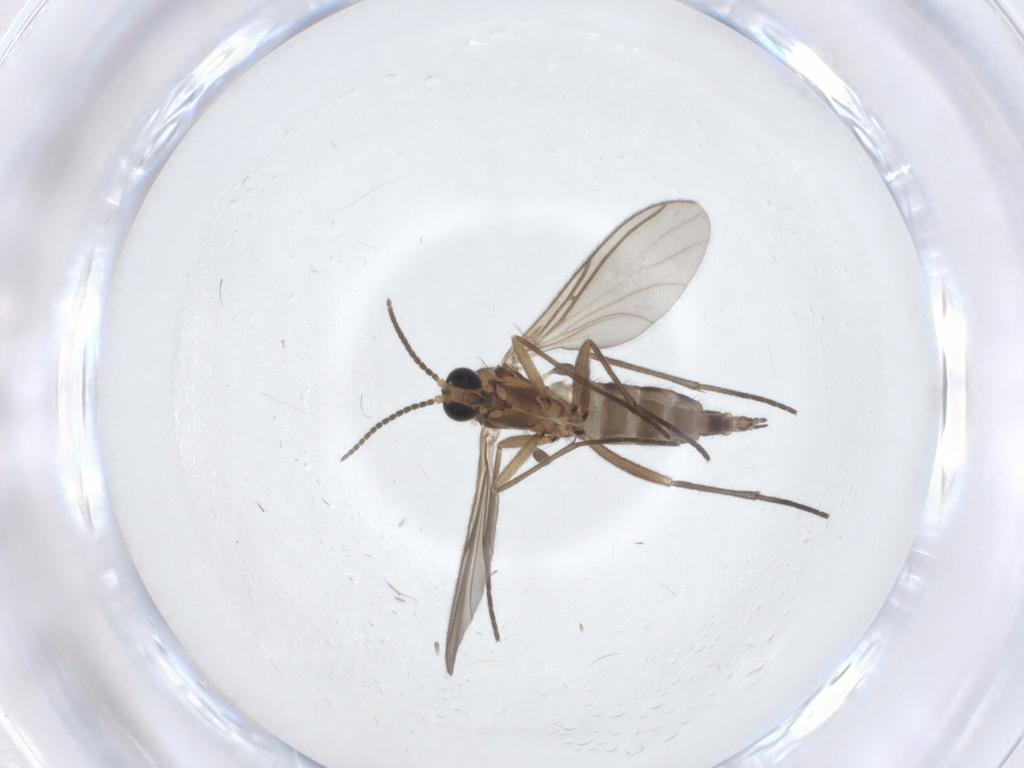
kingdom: Animalia
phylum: Arthropoda
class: Insecta
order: Diptera
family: Sciaridae
